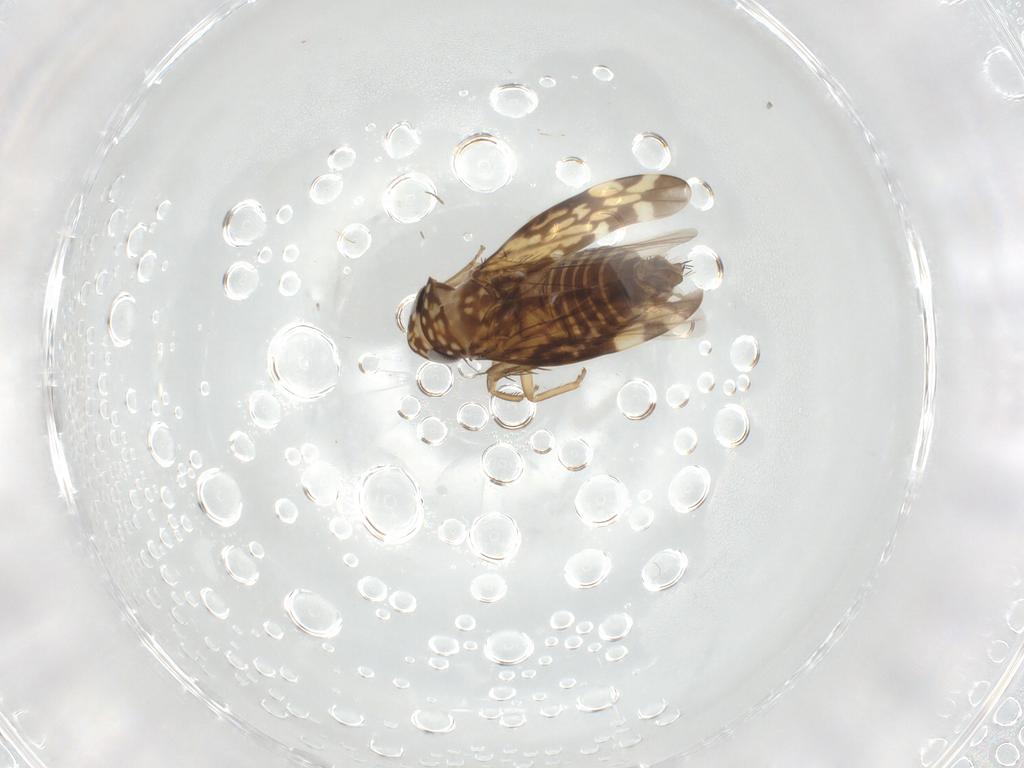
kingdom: Animalia
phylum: Arthropoda
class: Insecta
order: Hemiptera
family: Cicadellidae
